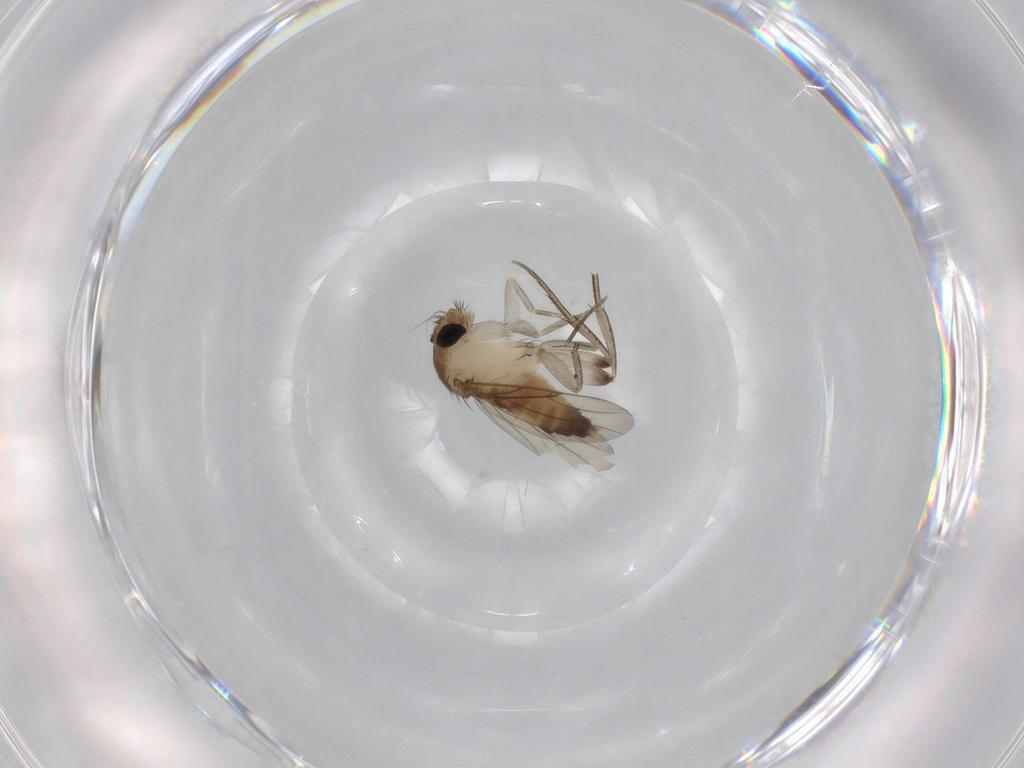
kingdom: Animalia
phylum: Arthropoda
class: Insecta
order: Diptera
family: Phoridae
